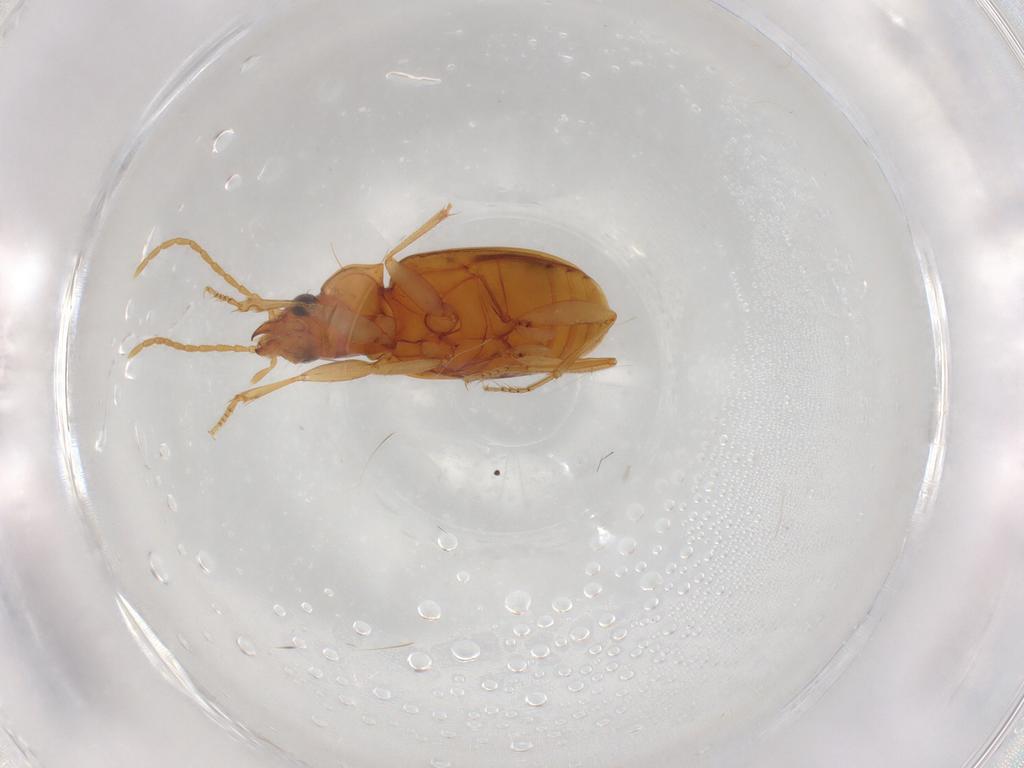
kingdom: Animalia
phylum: Arthropoda
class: Insecta
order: Coleoptera
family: Carabidae
